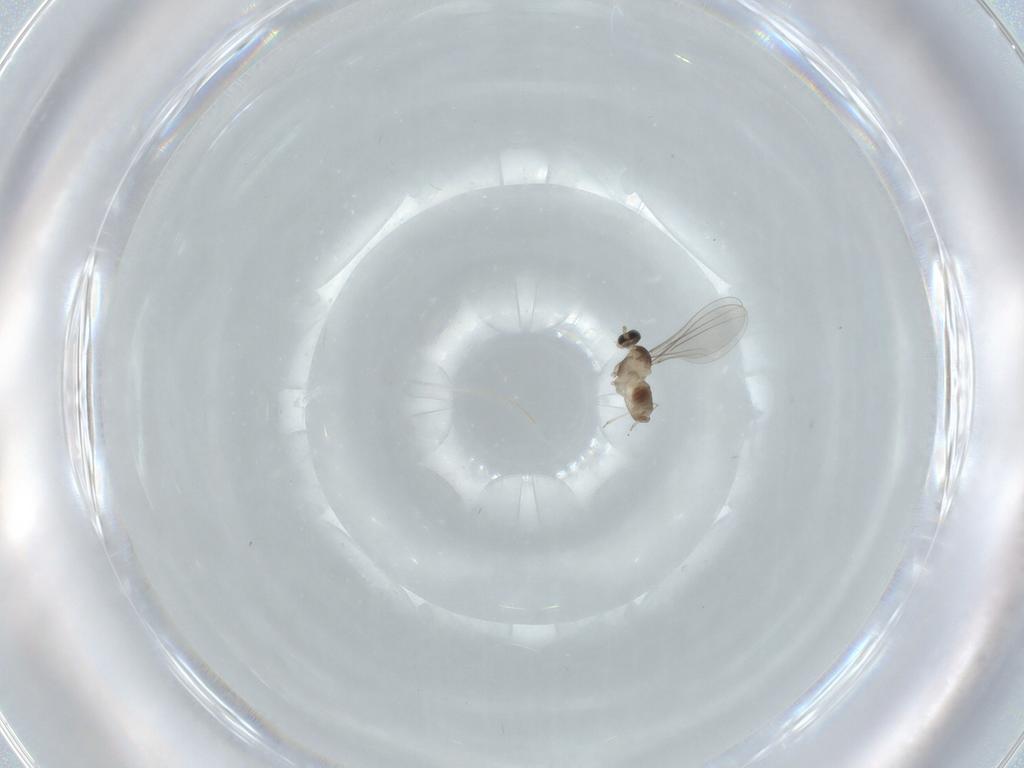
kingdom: Animalia
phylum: Arthropoda
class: Insecta
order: Diptera
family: Cecidomyiidae
